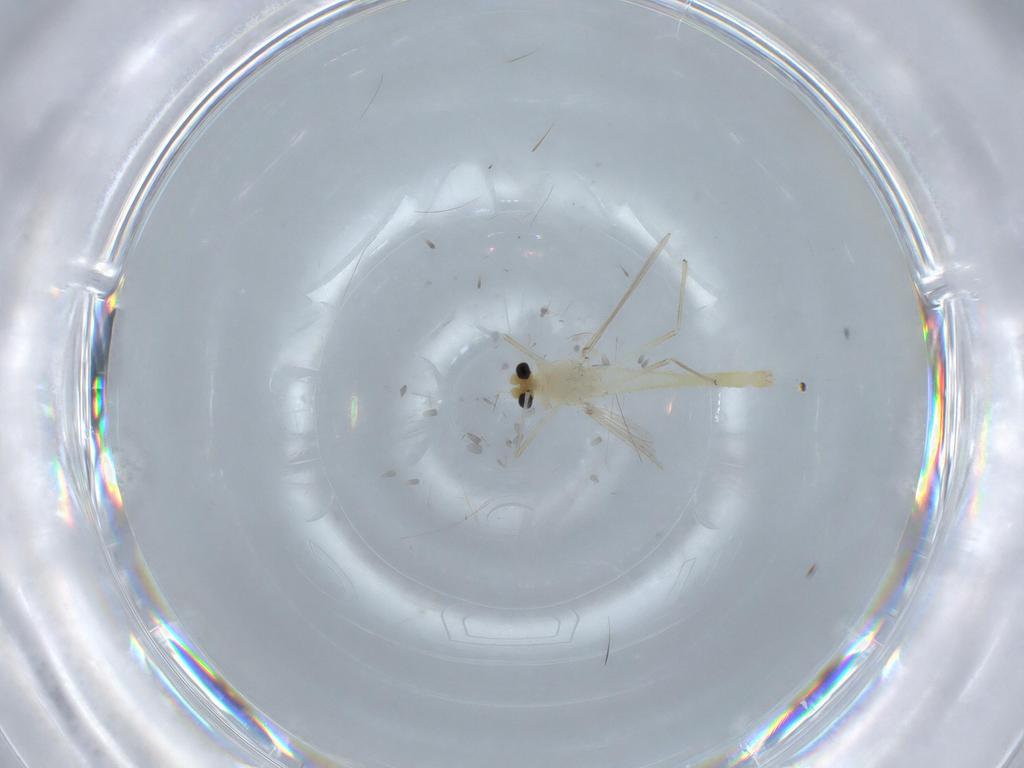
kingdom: Animalia
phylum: Arthropoda
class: Insecta
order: Diptera
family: Chironomidae
